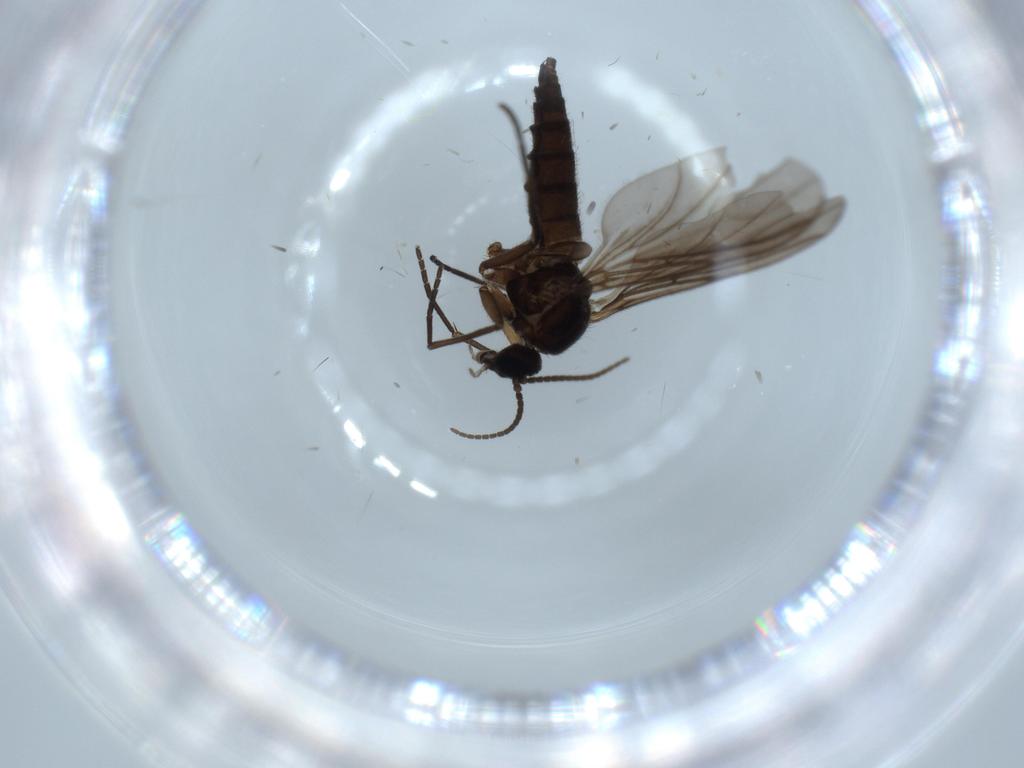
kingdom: Animalia
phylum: Arthropoda
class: Insecta
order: Diptera
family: Sciaridae
